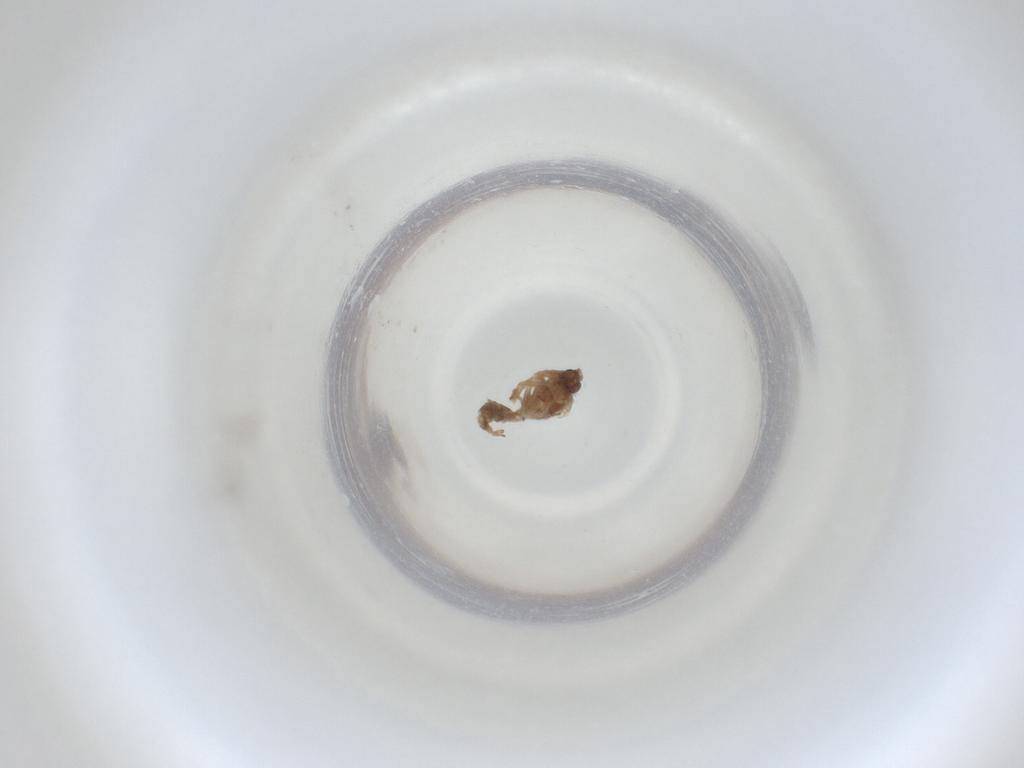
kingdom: Animalia
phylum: Arthropoda
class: Insecta
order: Diptera
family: Cecidomyiidae
